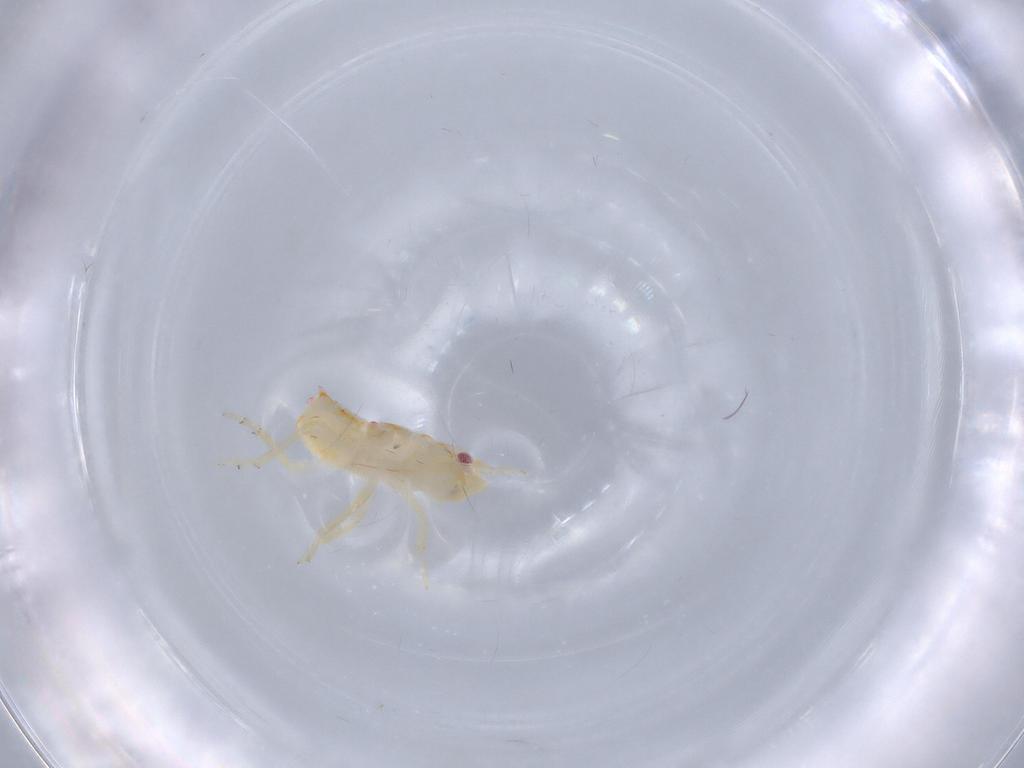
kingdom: Animalia
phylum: Arthropoda
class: Insecta
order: Hemiptera
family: Flatidae
